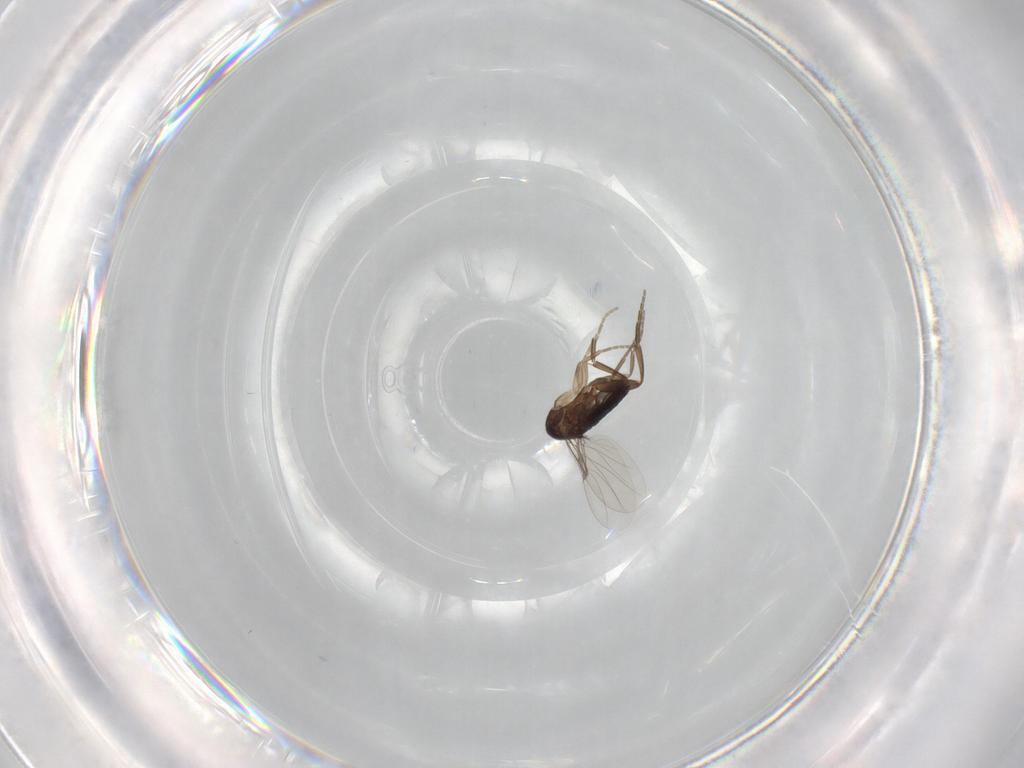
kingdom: Animalia
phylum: Arthropoda
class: Insecta
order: Diptera
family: Phoridae
